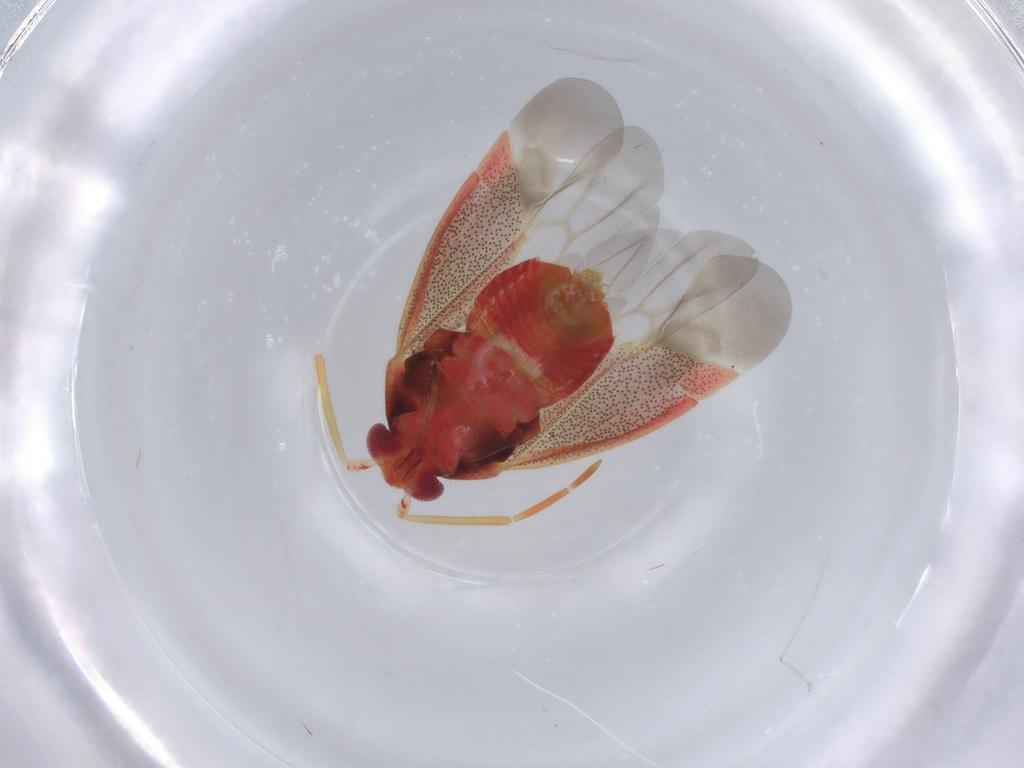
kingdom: Animalia
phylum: Arthropoda
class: Insecta
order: Hemiptera
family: Miridae
